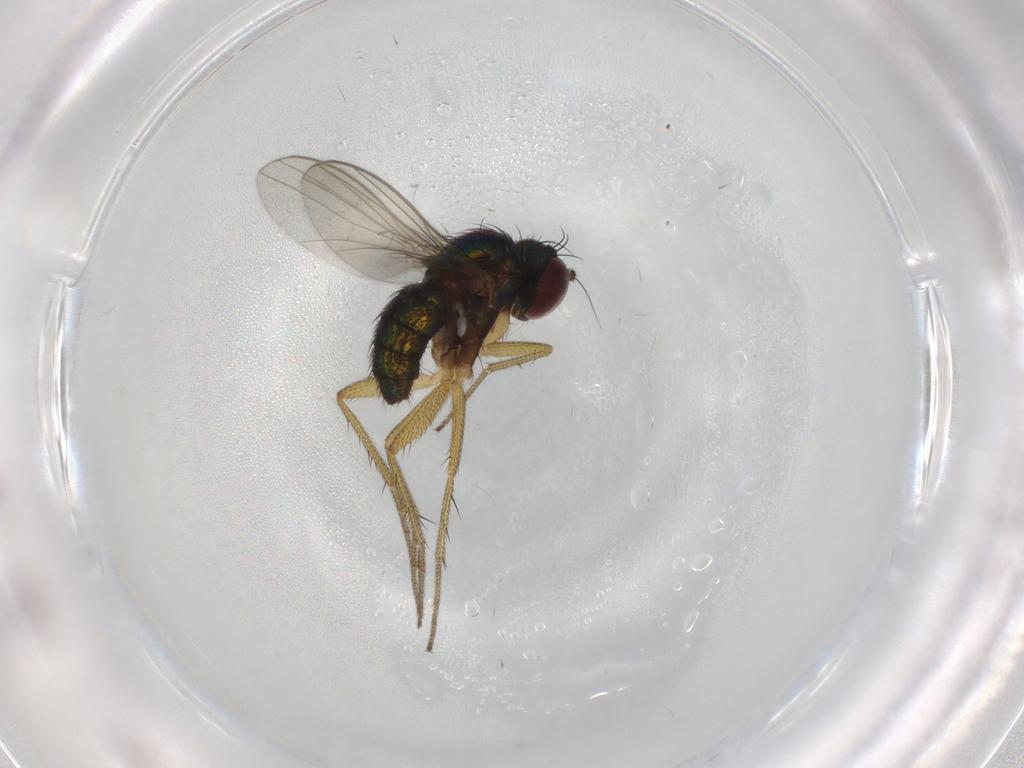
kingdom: Animalia
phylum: Arthropoda
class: Insecta
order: Diptera
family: Dolichopodidae
